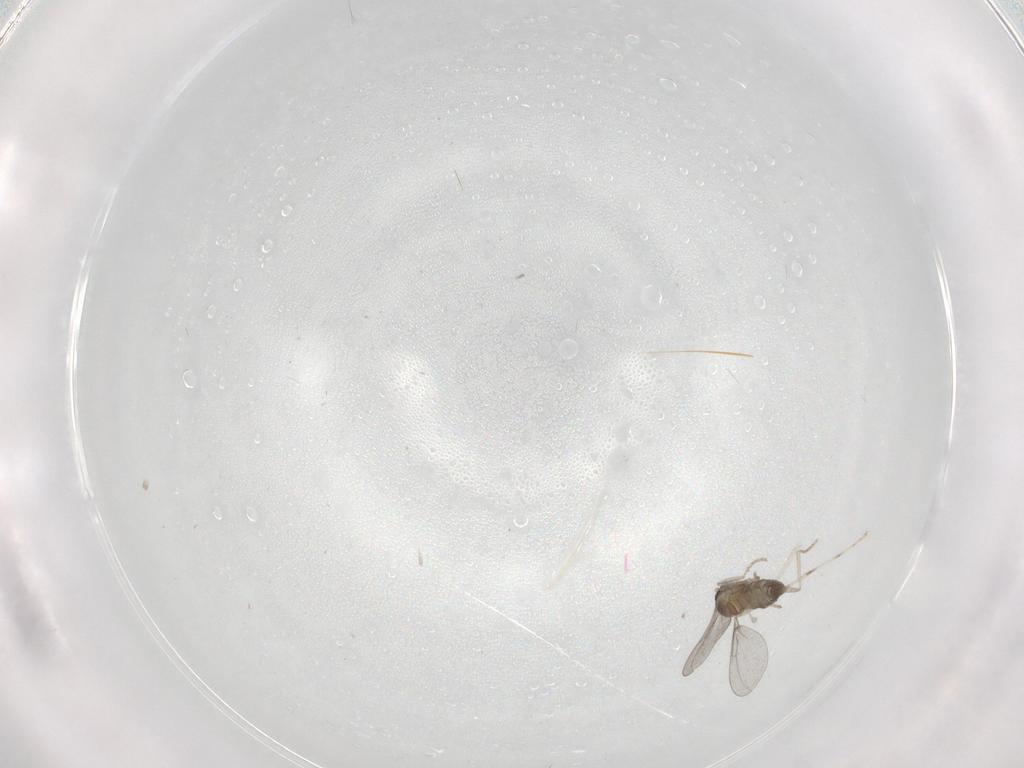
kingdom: Animalia
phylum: Arthropoda
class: Insecta
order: Diptera
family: Cecidomyiidae
